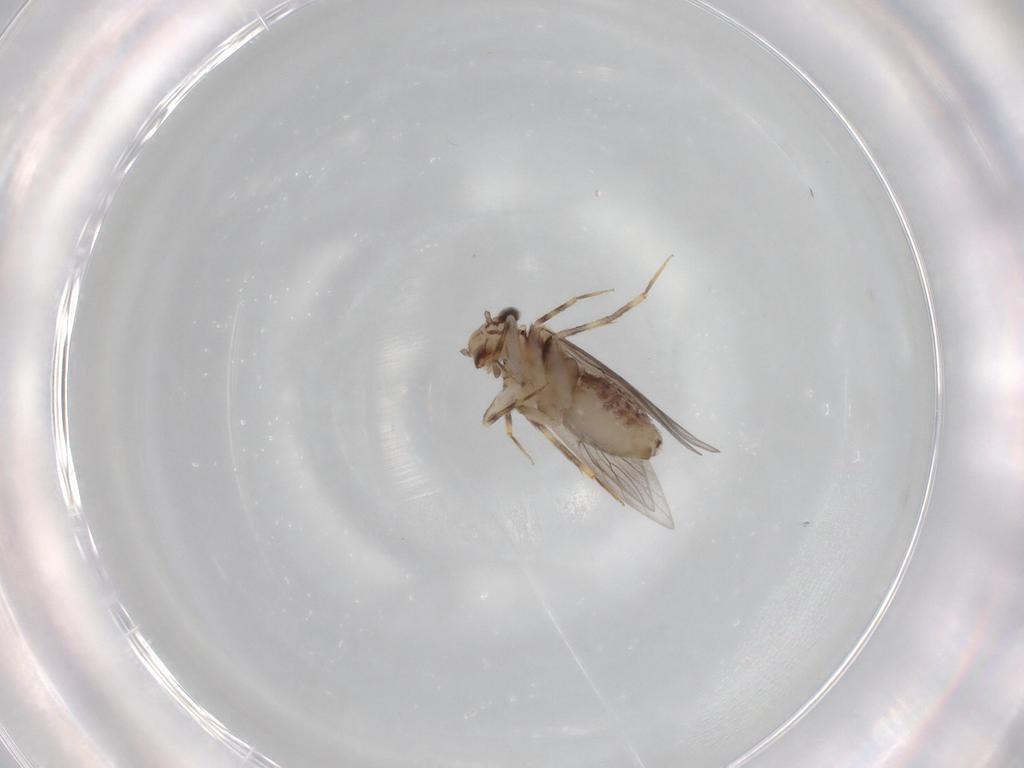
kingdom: Animalia
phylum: Arthropoda
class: Insecta
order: Psocodea
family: Lepidopsocidae
